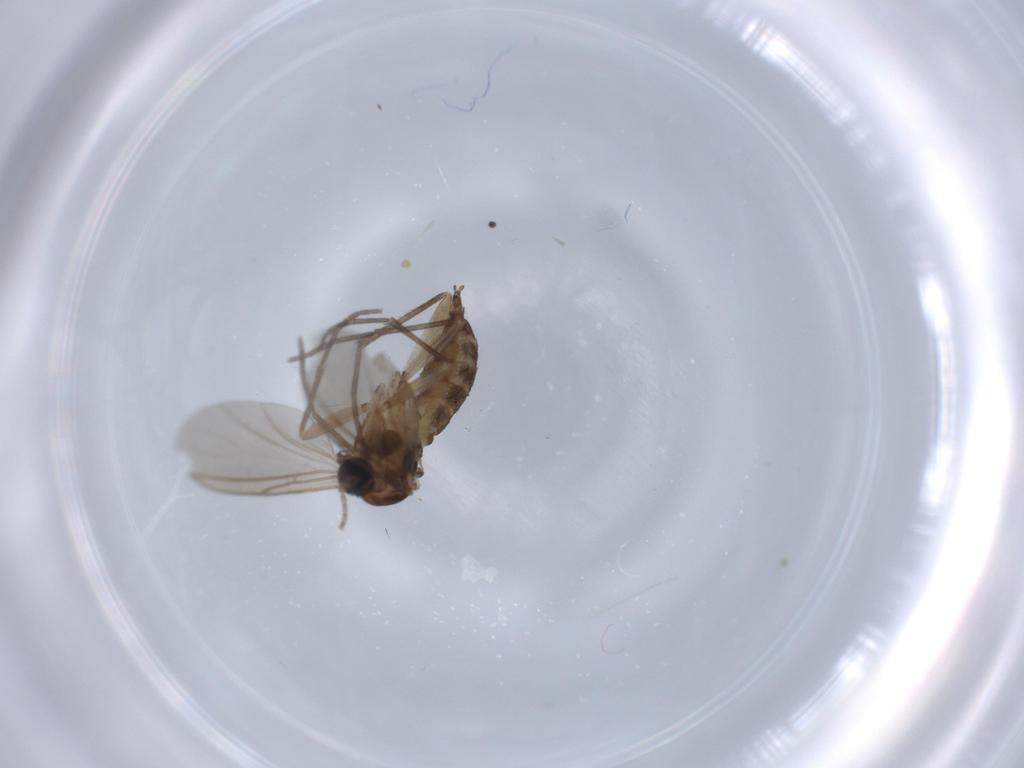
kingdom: Animalia
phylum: Arthropoda
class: Insecta
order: Diptera
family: Sciaridae
